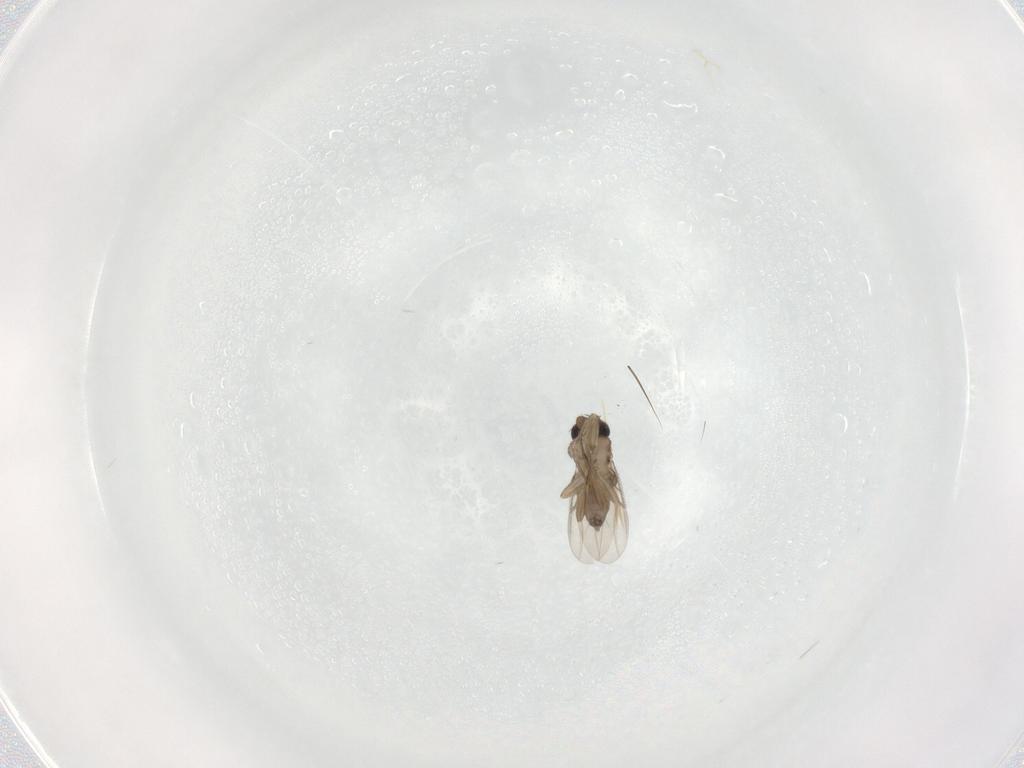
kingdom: Animalia
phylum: Arthropoda
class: Insecta
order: Diptera
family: Phoridae
